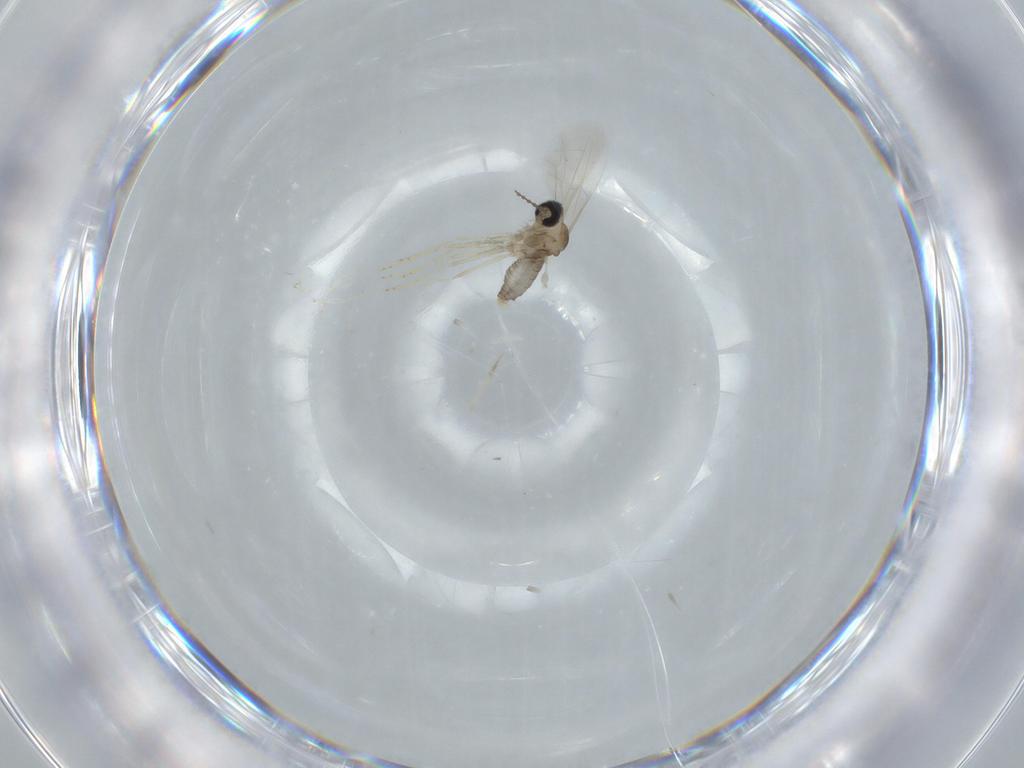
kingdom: Animalia
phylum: Arthropoda
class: Insecta
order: Diptera
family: Cecidomyiidae
